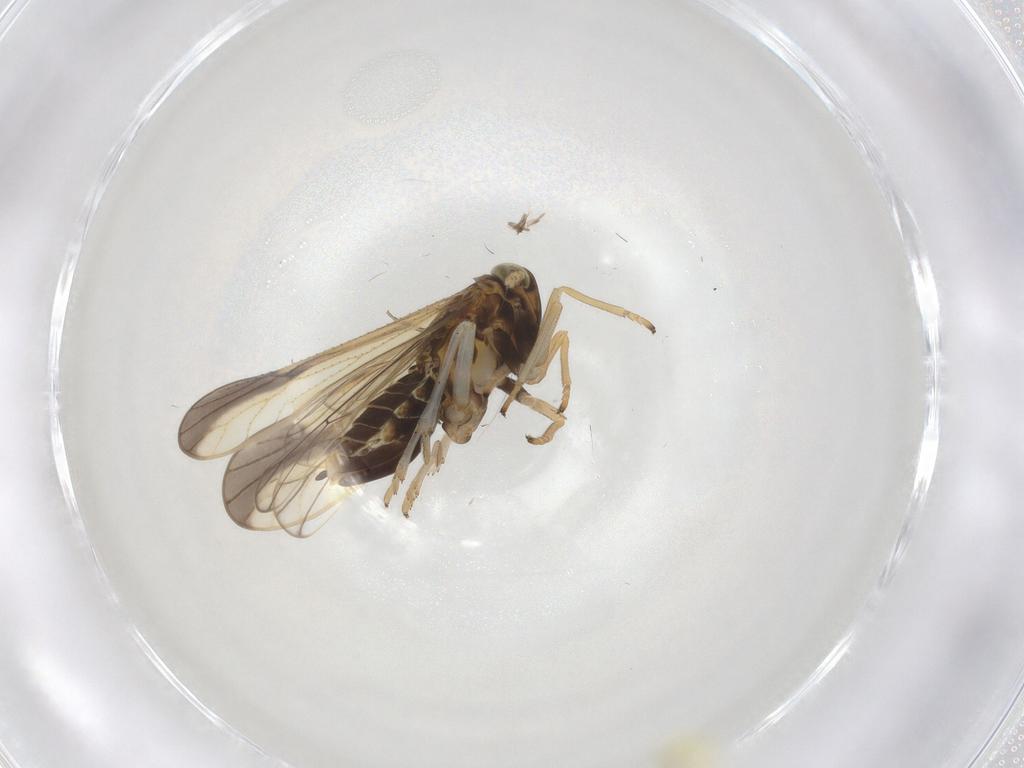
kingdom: Animalia
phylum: Arthropoda
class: Insecta
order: Hemiptera
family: Delphacidae
